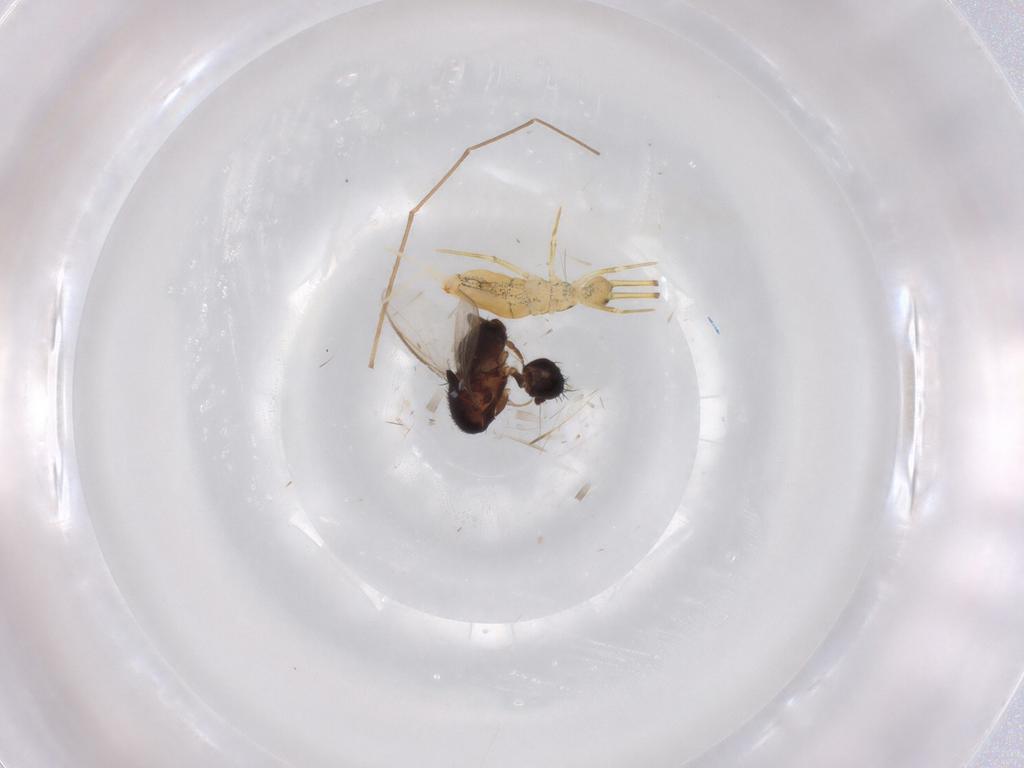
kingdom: Animalia
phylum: Arthropoda
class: Insecta
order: Diptera
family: Sphaeroceridae
